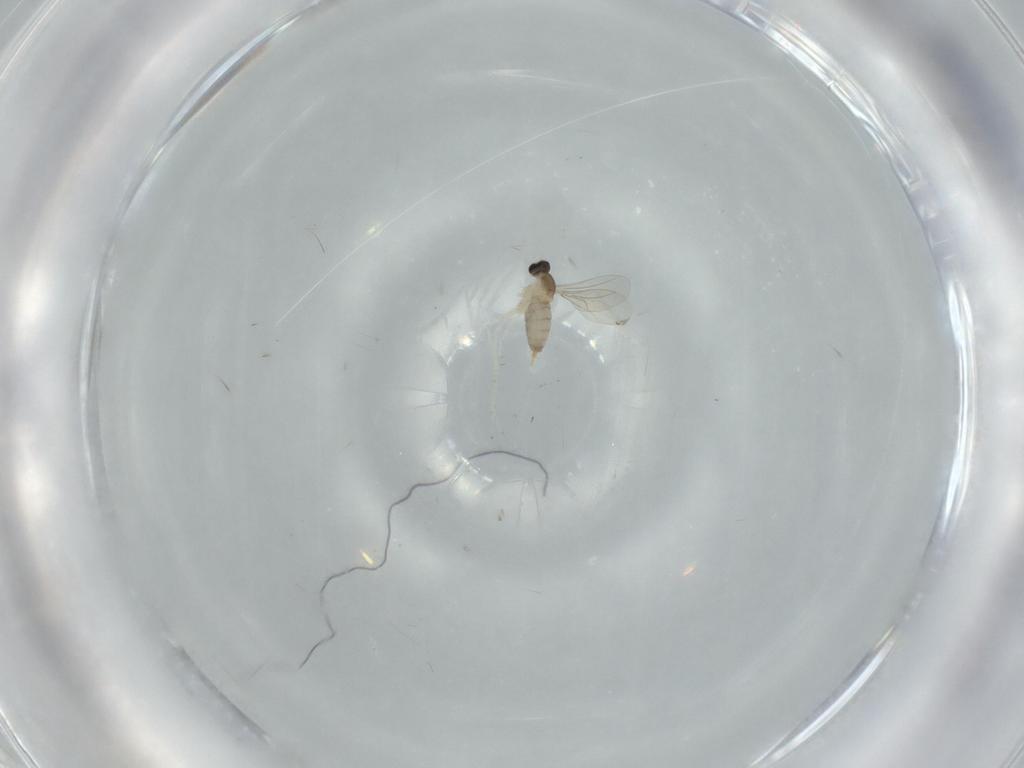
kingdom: Animalia
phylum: Arthropoda
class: Insecta
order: Diptera
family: Cecidomyiidae
